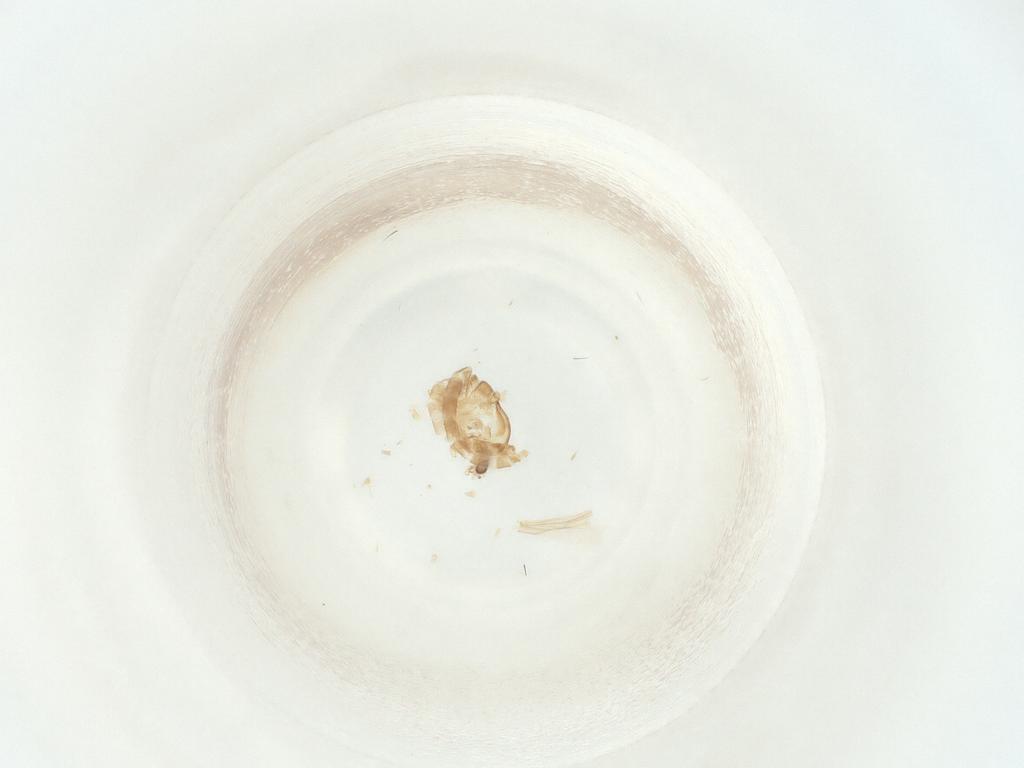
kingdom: Animalia
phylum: Arthropoda
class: Insecta
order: Diptera
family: Chironomidae
